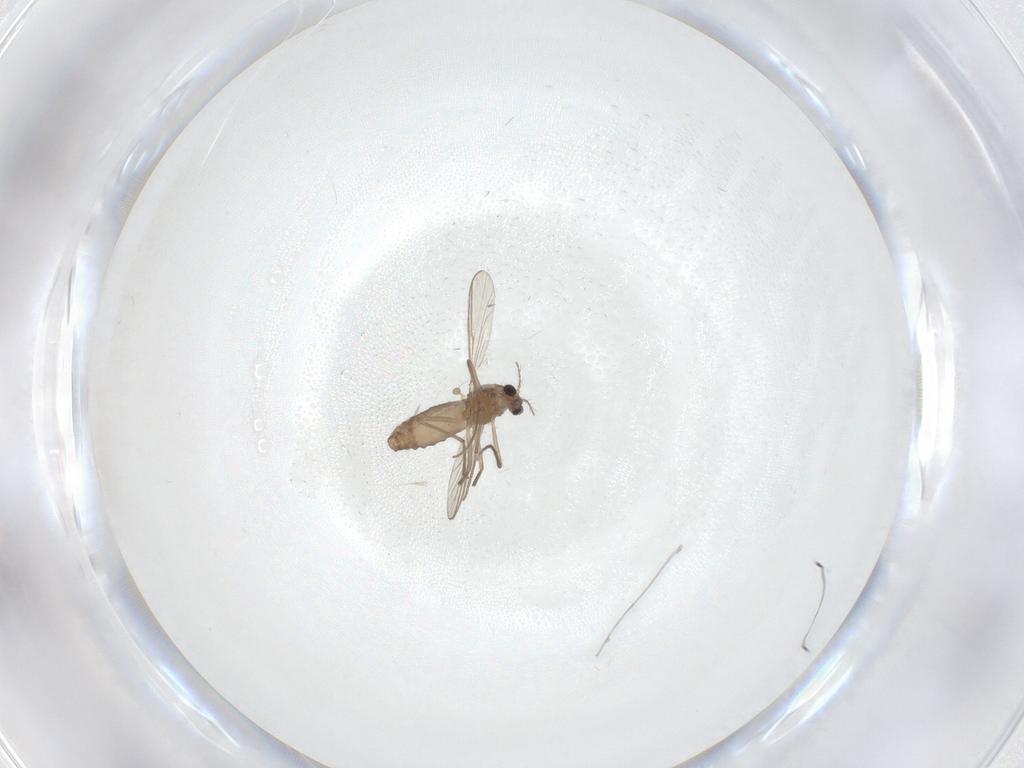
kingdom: Animalia
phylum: Arthropoda
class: Insecta
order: Diptera
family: Chironomidae
